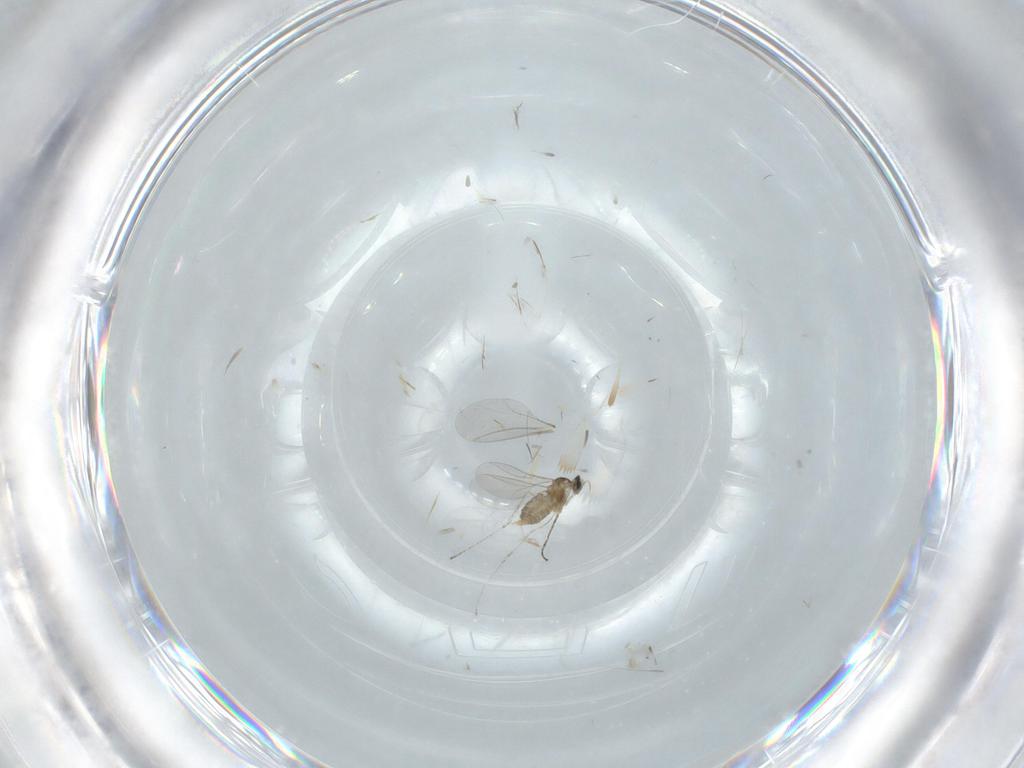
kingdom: Animalia
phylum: Arthropoda
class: Insecta
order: Diptera
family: Cecidomyiidae
